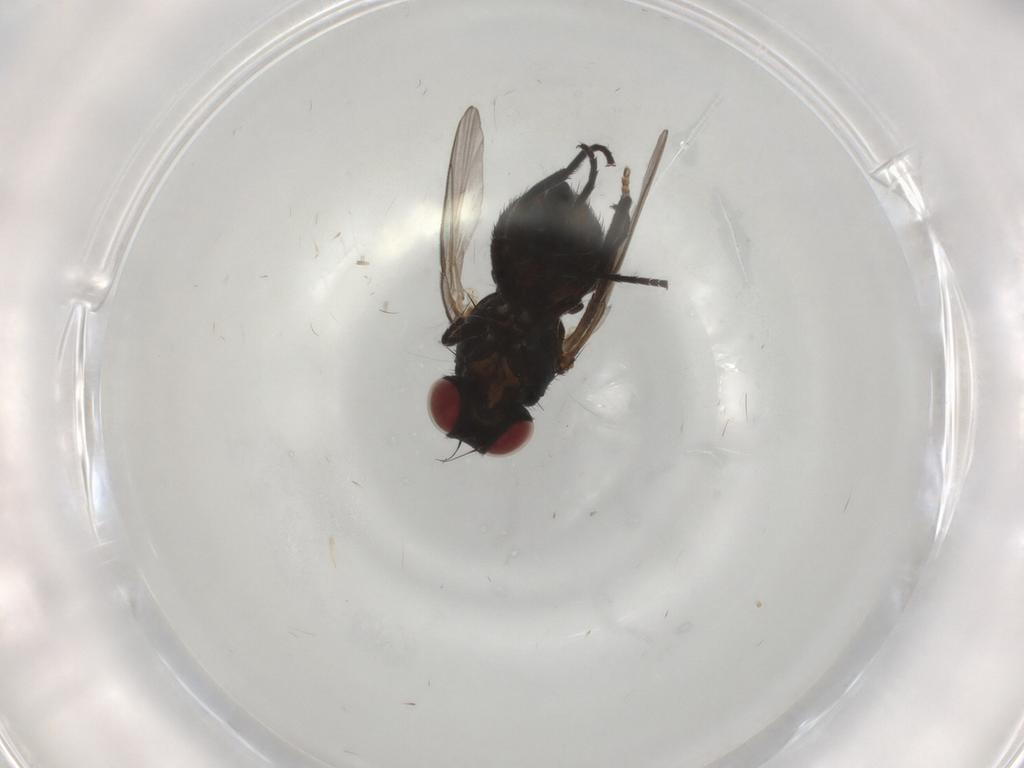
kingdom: Animalia
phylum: Arthropoda
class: Insecta
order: Diptera
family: Agromyzidae
